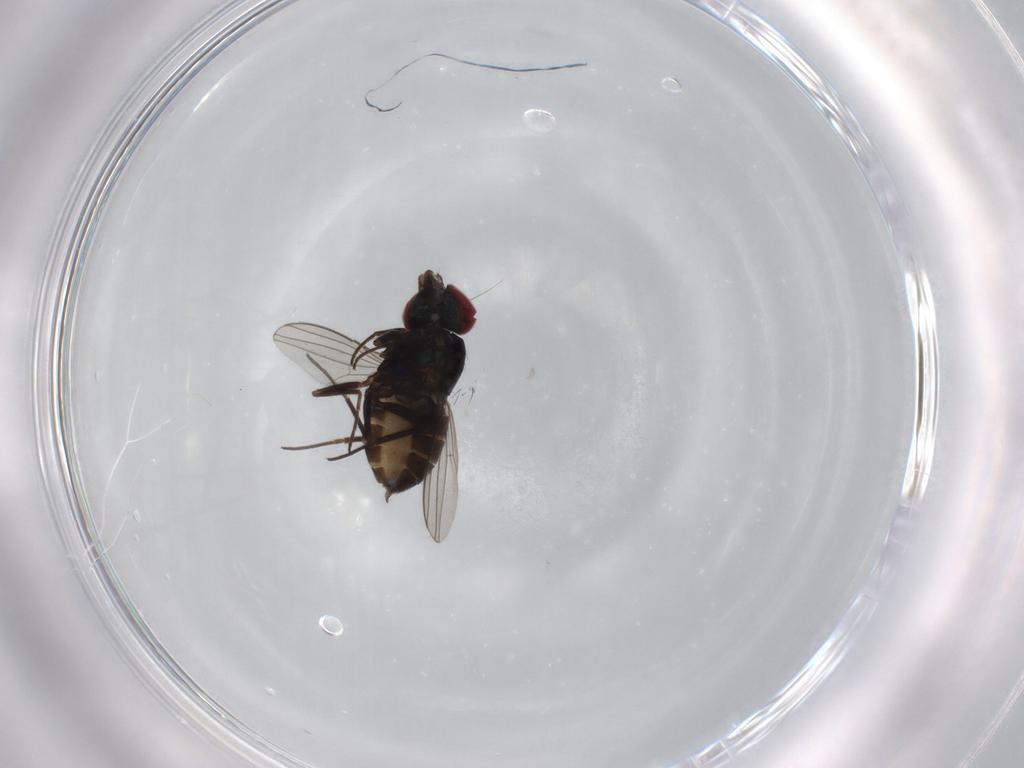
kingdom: Animalia
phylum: Arthropoda
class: Insecta
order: Diptera
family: Dolichopodidae
